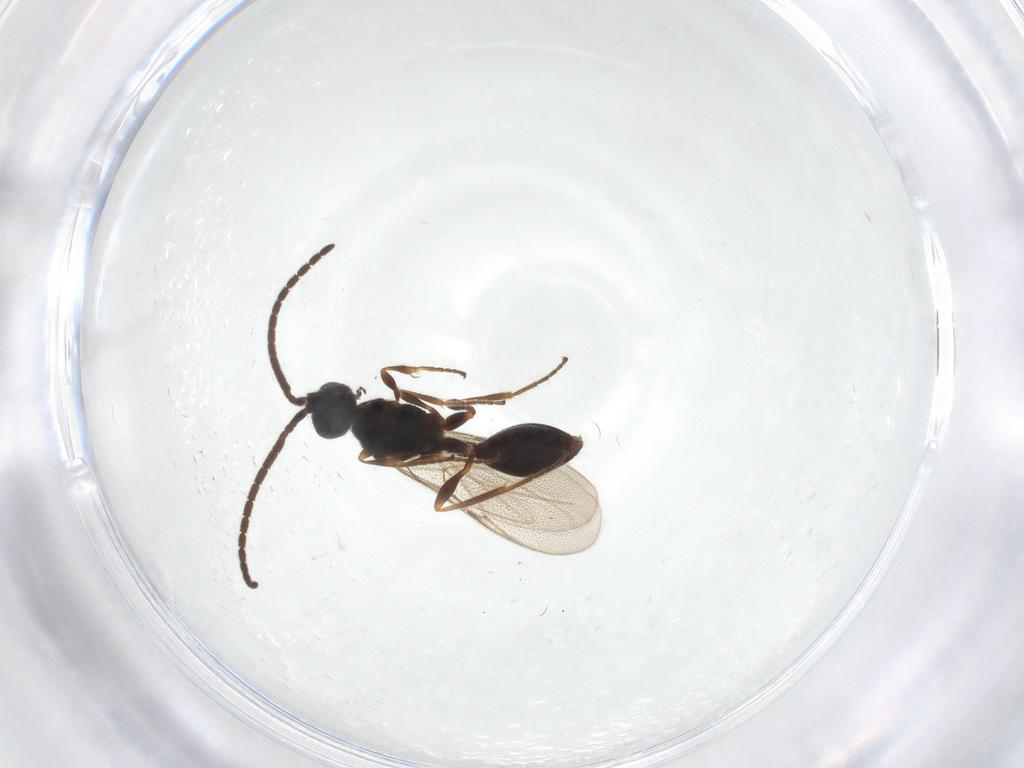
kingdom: Animalia
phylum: Arthropoda
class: Insecta
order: Hymenoptera
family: Diapriidae
